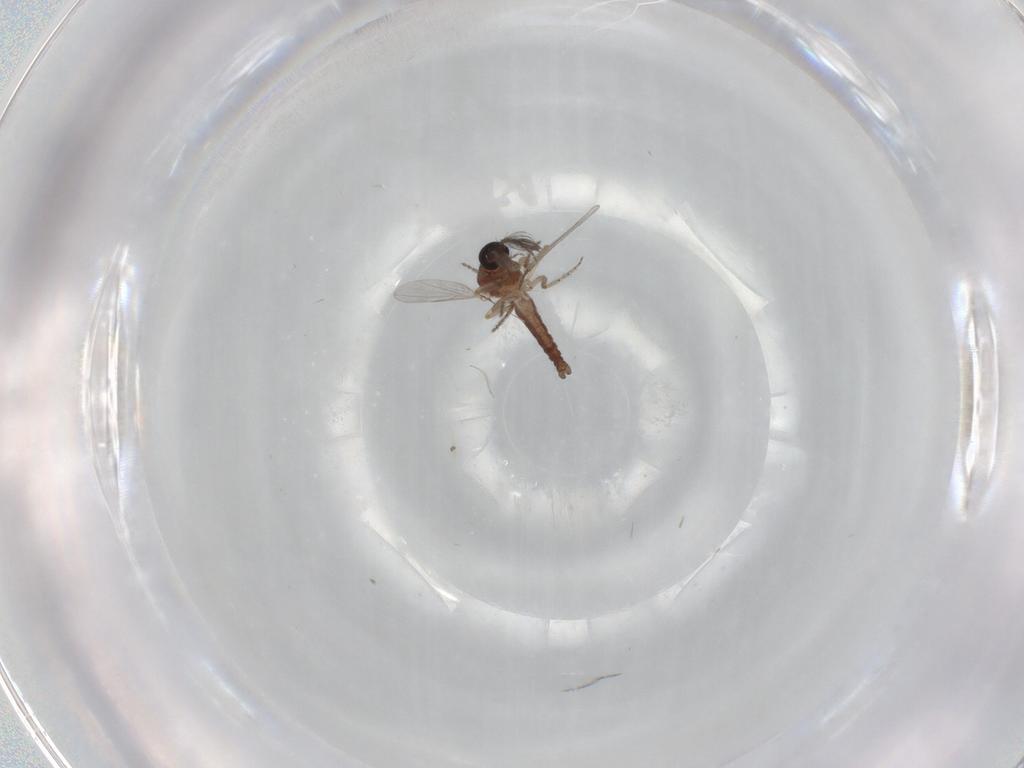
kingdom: Animalia
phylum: Arthropoda
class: Insecta
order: Diptera
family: Ceratopogonidae
